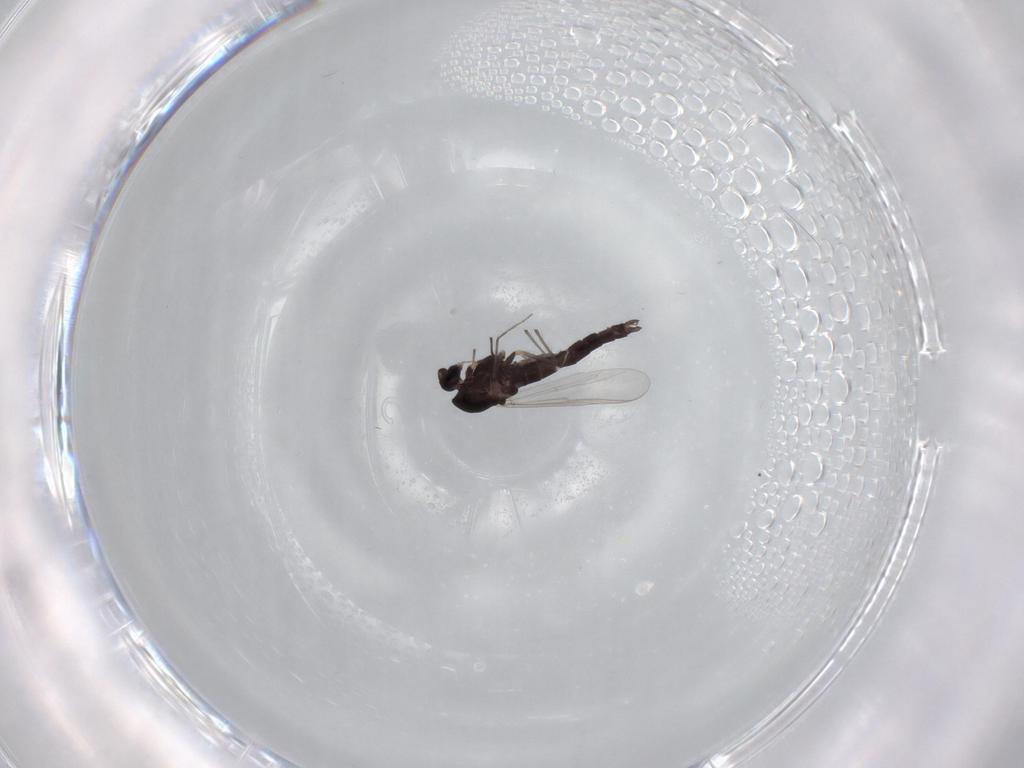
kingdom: Animalia
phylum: Arthropoda
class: Insecta
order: Diptera
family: Chironomidae
